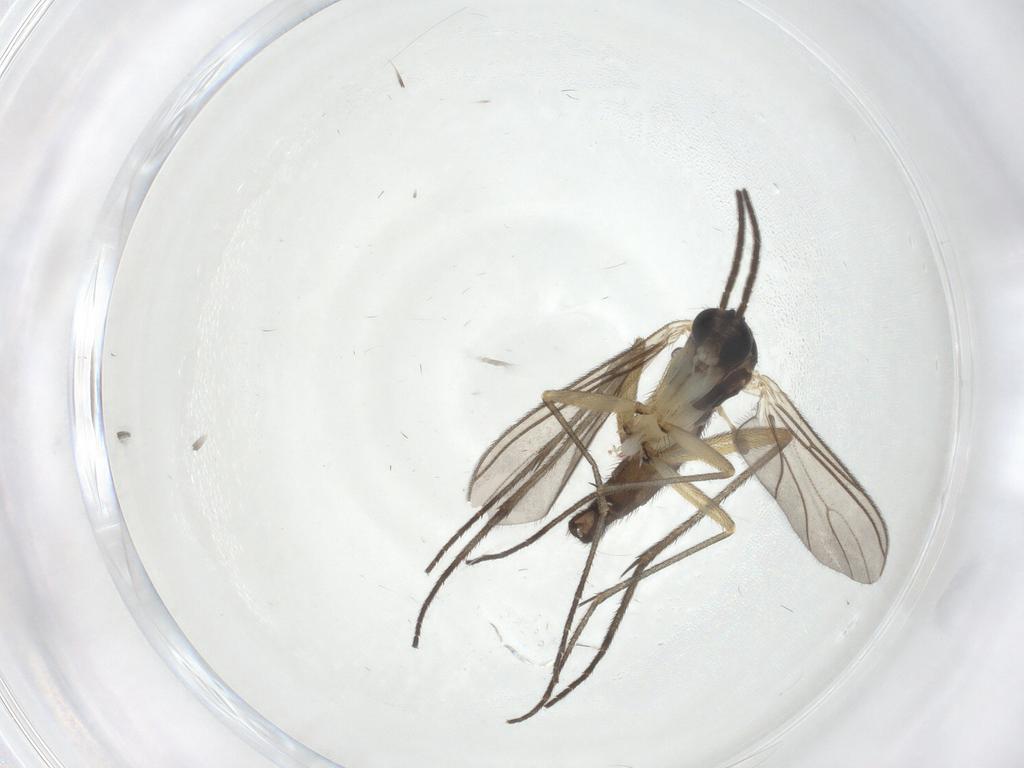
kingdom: Animalia
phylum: Arthropoda
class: Insecta
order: Diptera
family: Sciaridae
